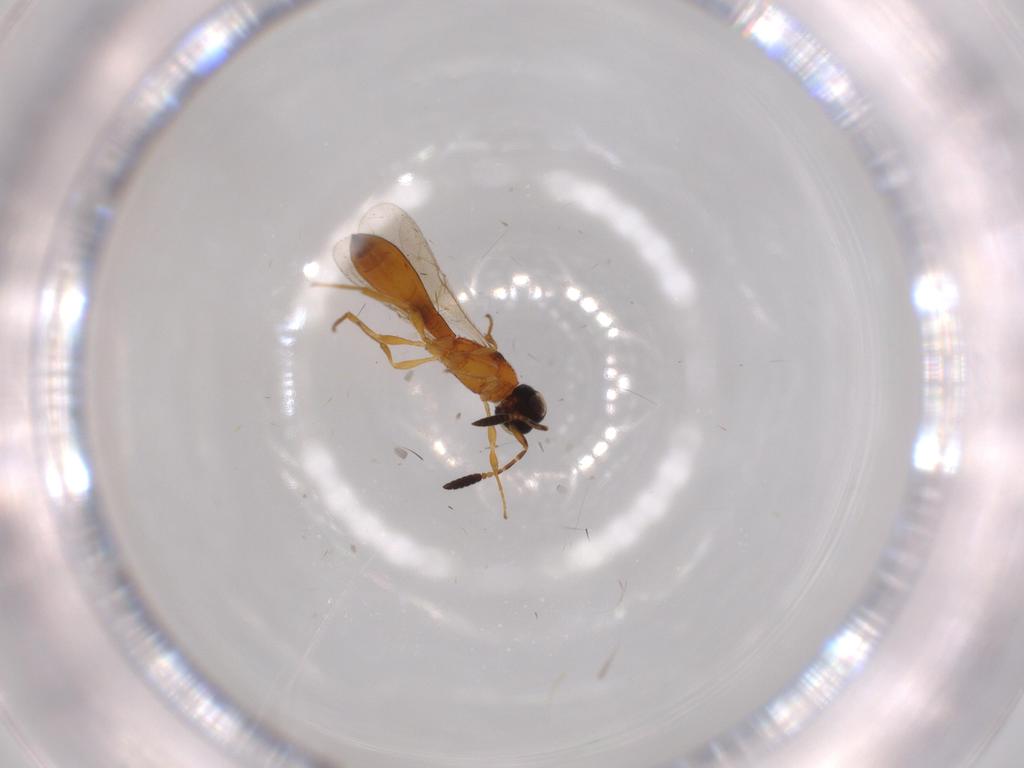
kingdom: Animalia
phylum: Arthropoda
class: Insecta
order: Hymenoptera
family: Scelionidae
